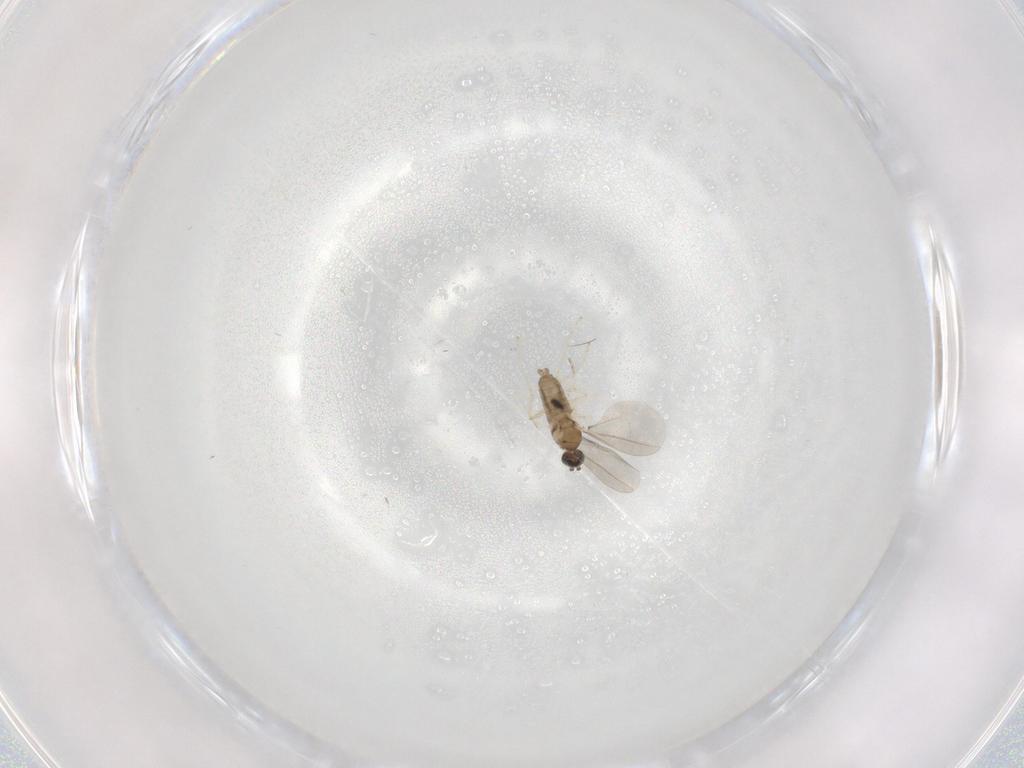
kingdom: Animalia
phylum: Arthropoda
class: Insecta
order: Diptera
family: Cecidomyiidae
